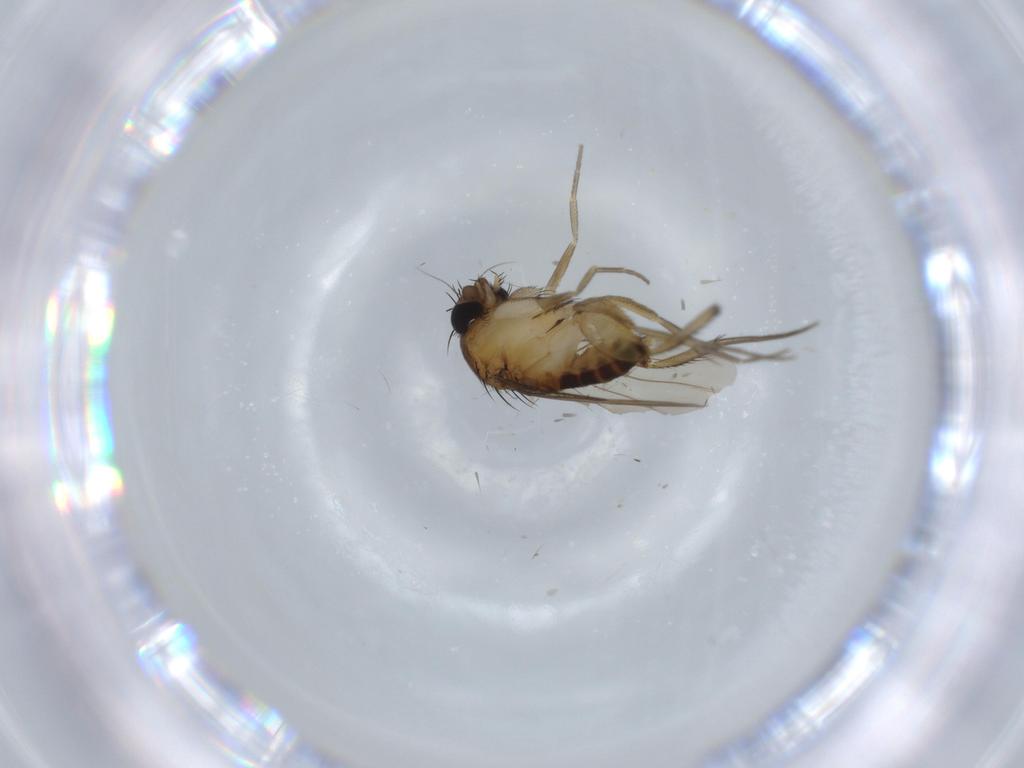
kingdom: Animalia
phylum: Arthropoda
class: Insecta
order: Diptera
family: Phoridae
